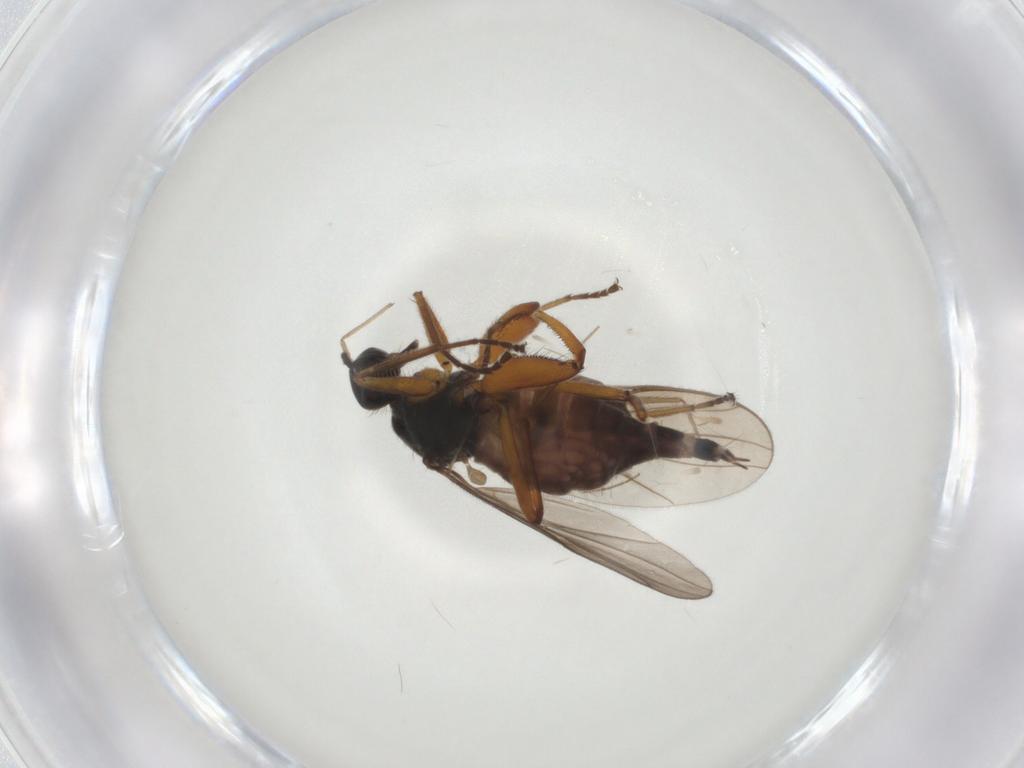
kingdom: Animalia
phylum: Arthropoda
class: Insecta
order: Diptera
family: Hybotidae
